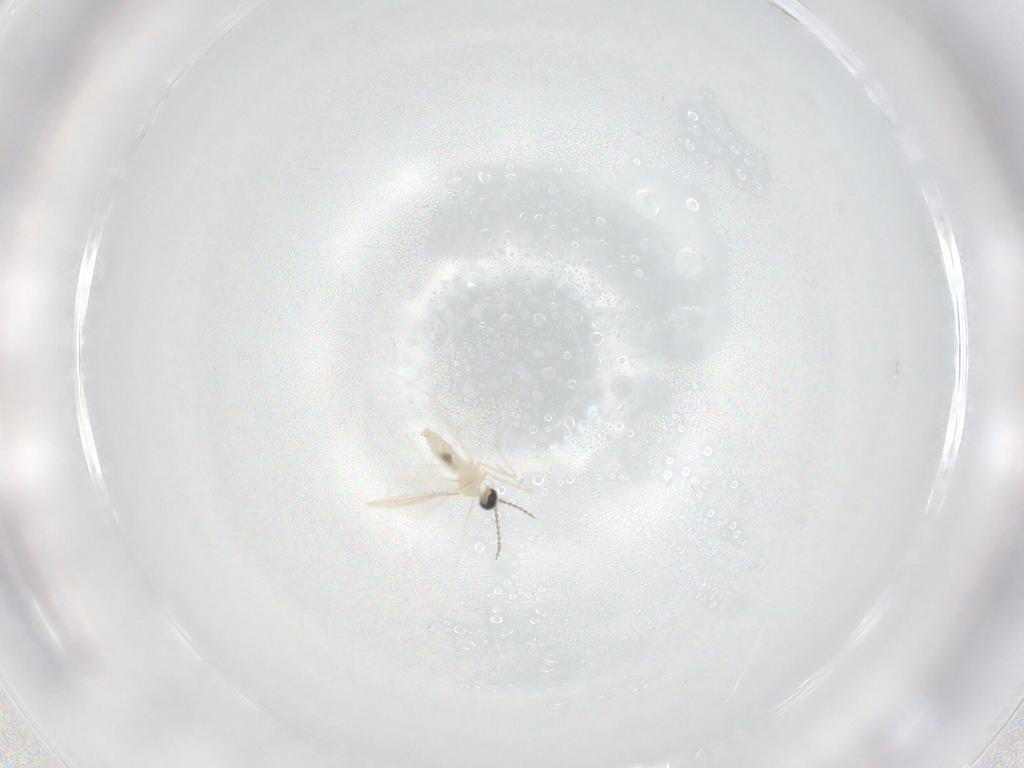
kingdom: Animalia
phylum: Arthropoda
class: Insecta
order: Diptera
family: Cecidomyiidae
